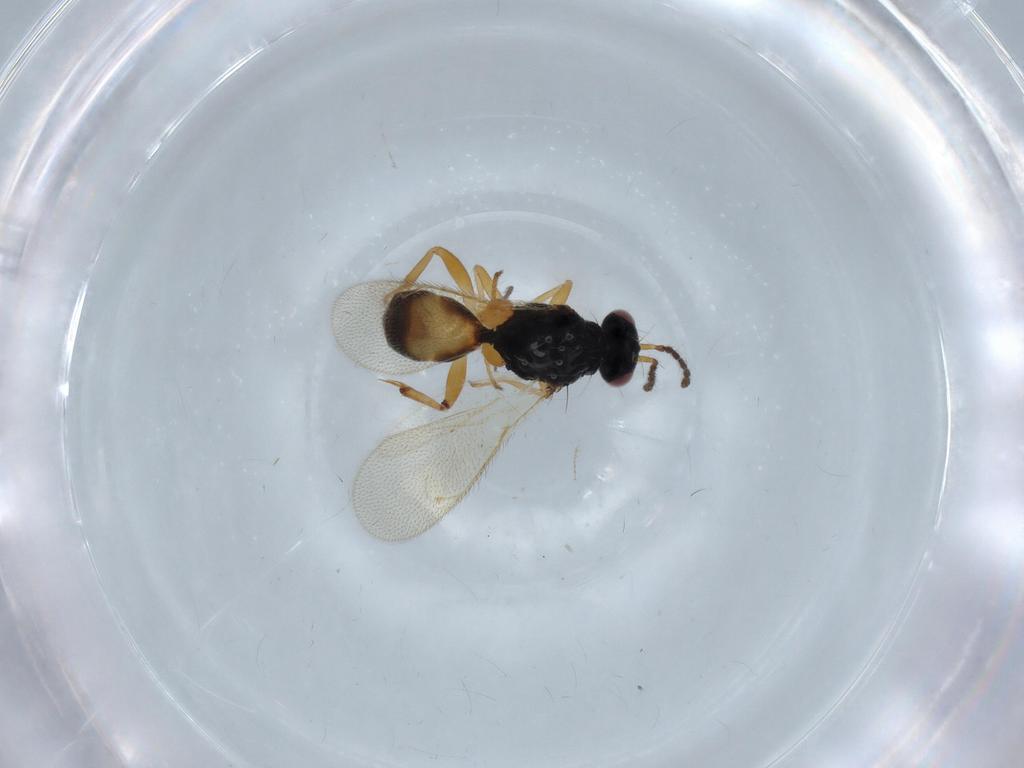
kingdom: Animalia
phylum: Arthropoda
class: Insecta
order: Hymenoptera
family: Eulophidae
